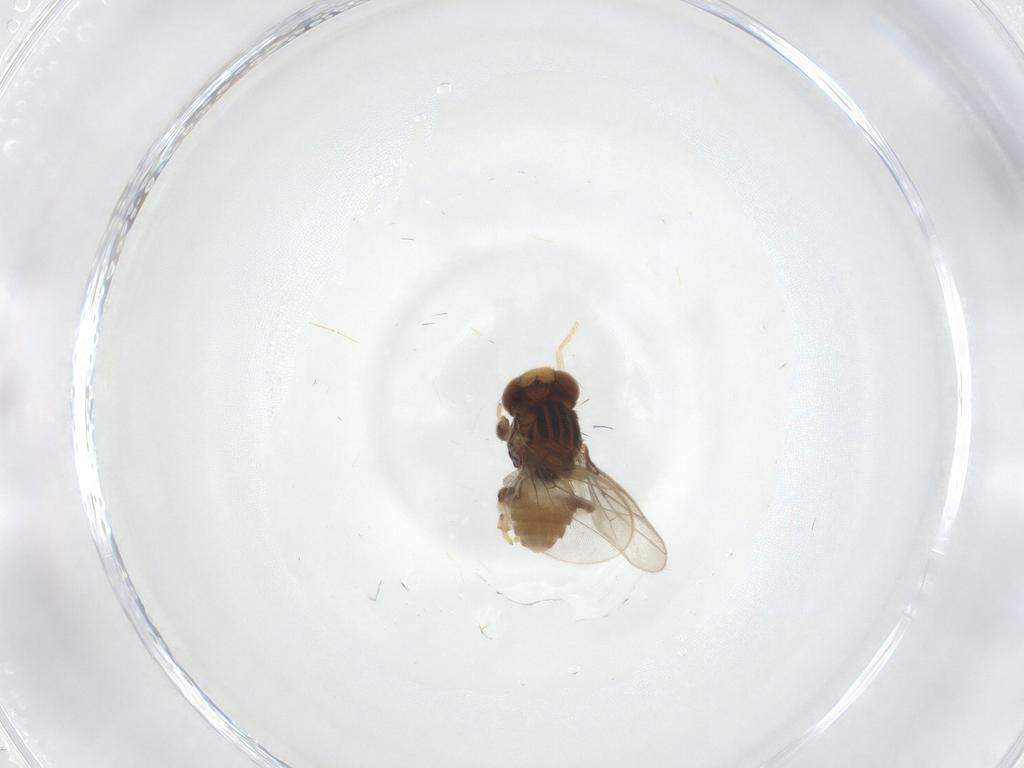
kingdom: Animalia
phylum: Arthropoda
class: Insecta
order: Diptera
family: Chloropidae
